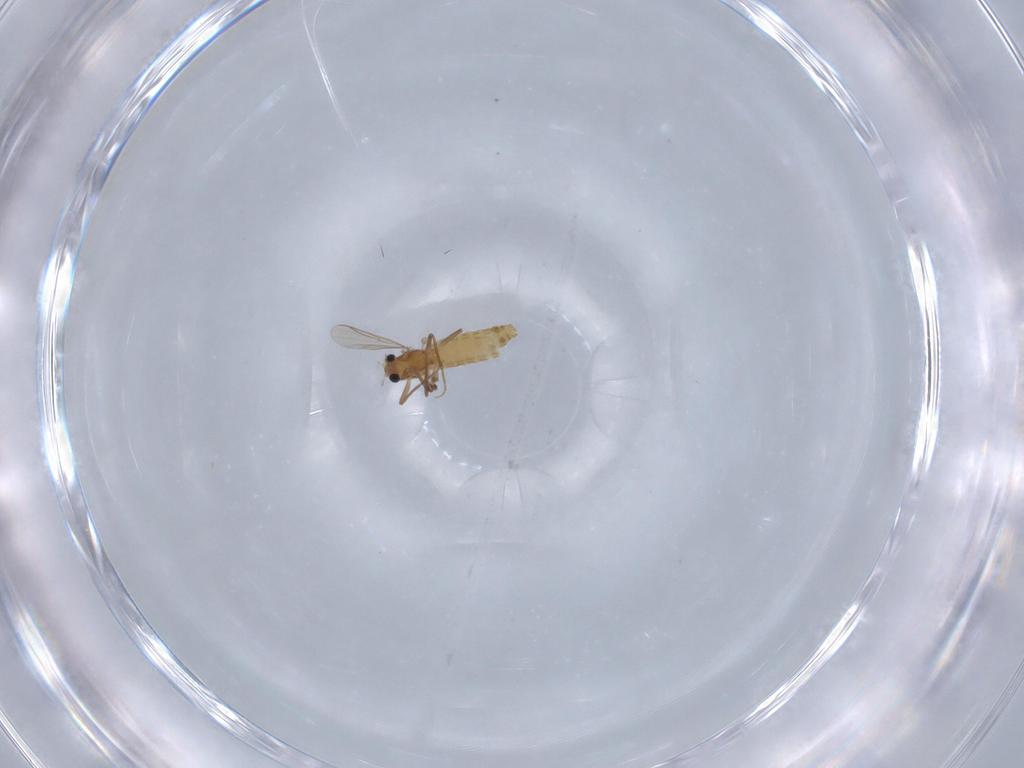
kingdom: Animalia
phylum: Arthropoda
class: Insecta
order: Diptera
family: Chironomidae
